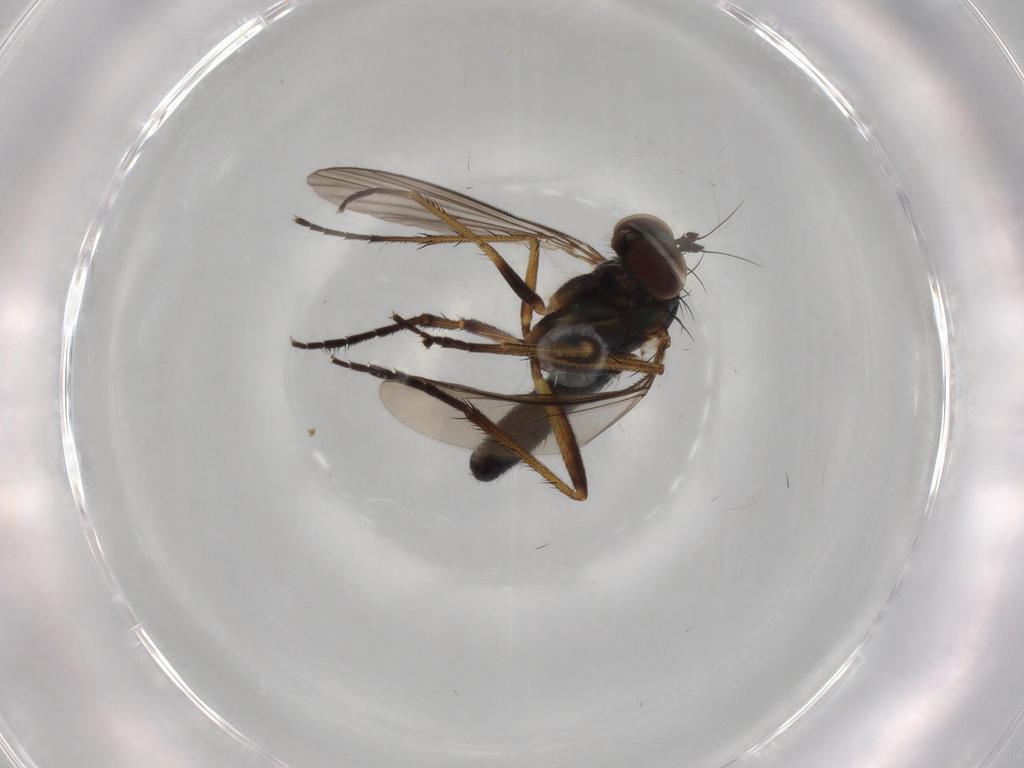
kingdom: Animalia
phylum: Arthropoda
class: Insecta
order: Diptera
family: Dolichopodidae
